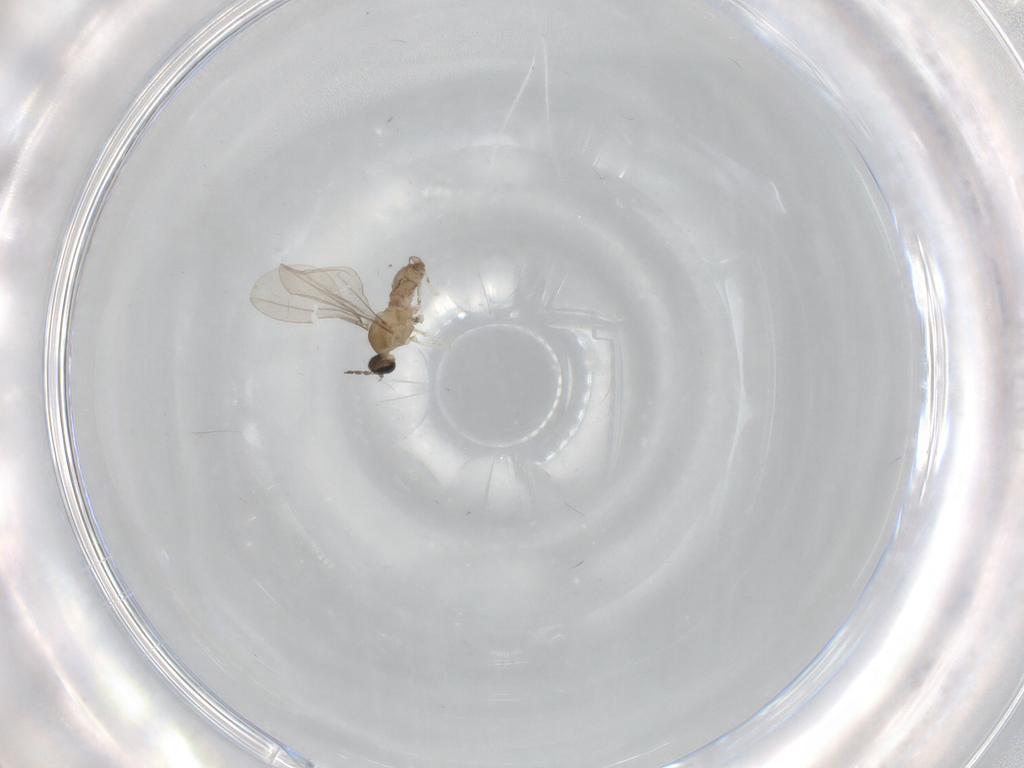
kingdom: Animalia
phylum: Arthropoda
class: Insecta
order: Diptera
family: Cecidomyiidae
